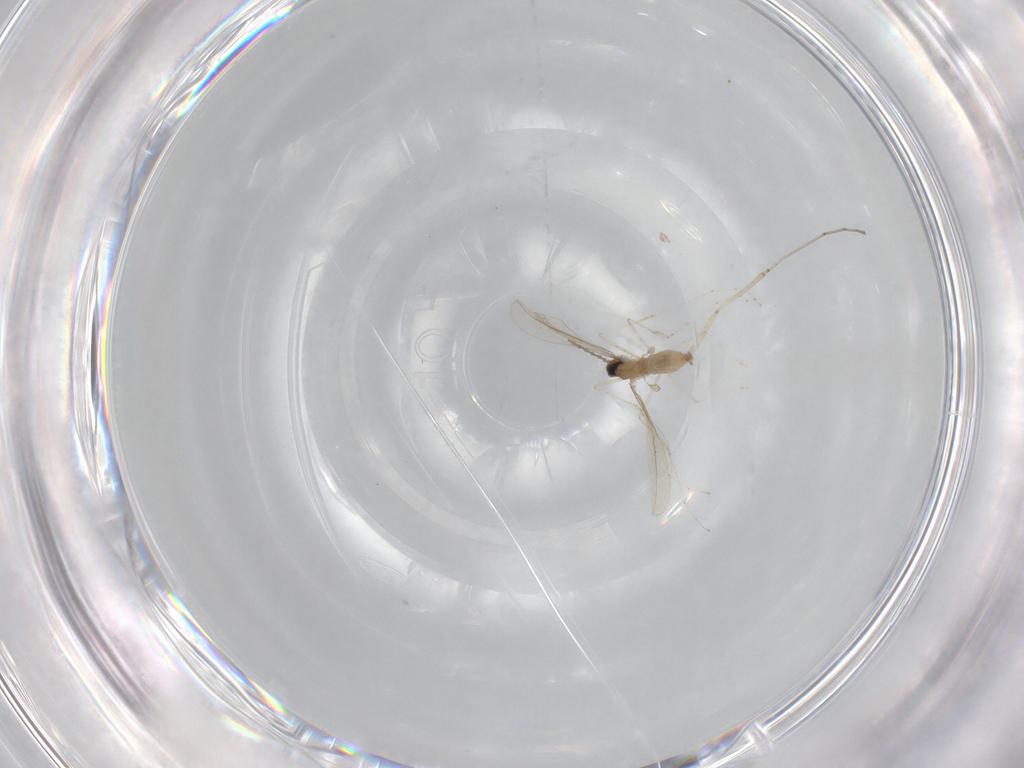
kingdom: Animalia
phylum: Arthropoda
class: Insecta
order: Diptera
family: Cecidomyiidae
